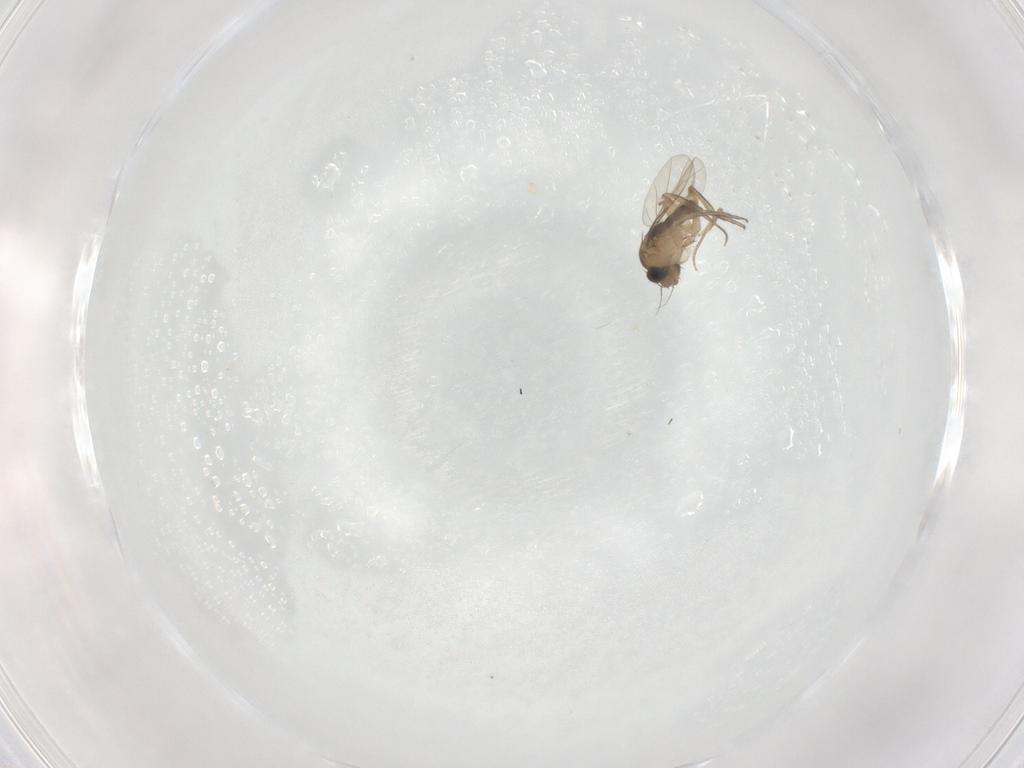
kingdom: Animalia
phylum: Arthropoda
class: Insecta
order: Diptera
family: Phoridae
